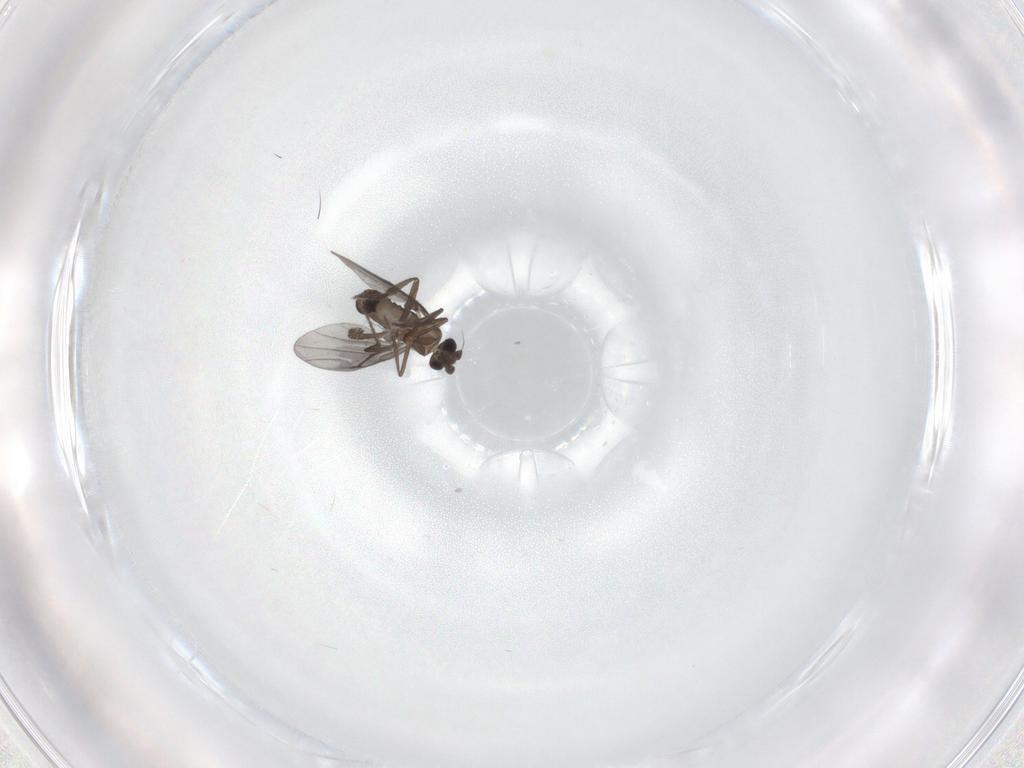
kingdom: Animalia
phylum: Arthropoda
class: Insecta
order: Diptera
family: Phoridae
